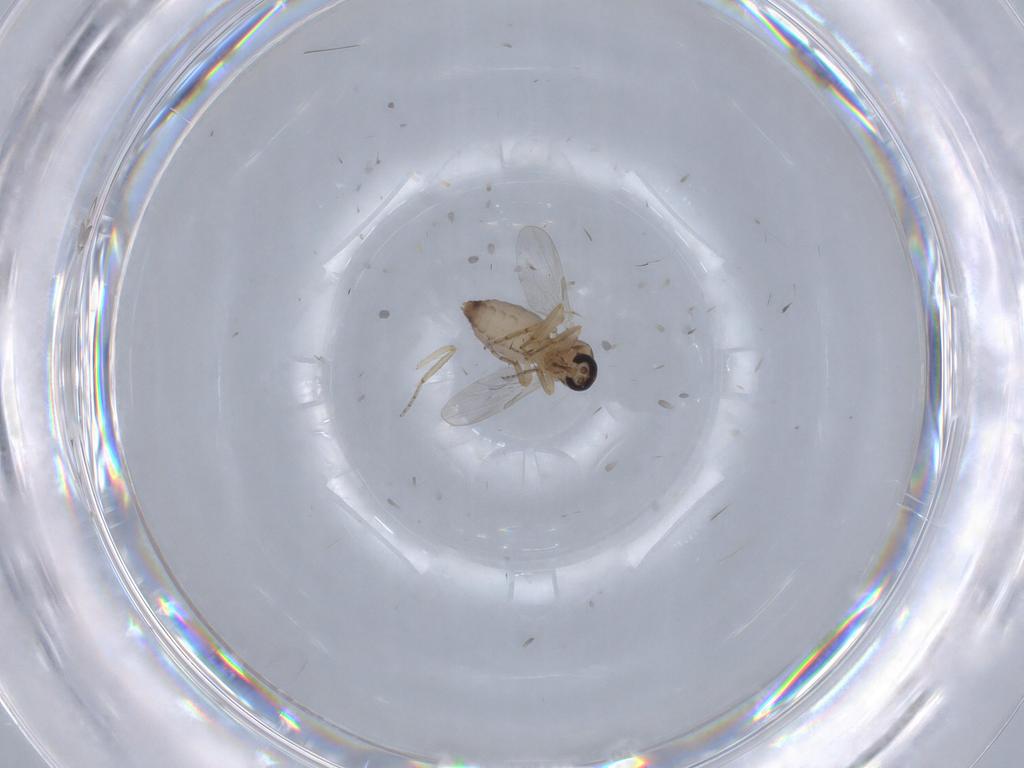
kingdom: Animalia
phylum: Arthropoda
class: Insecta
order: Diptera
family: Ceratopogonidae
